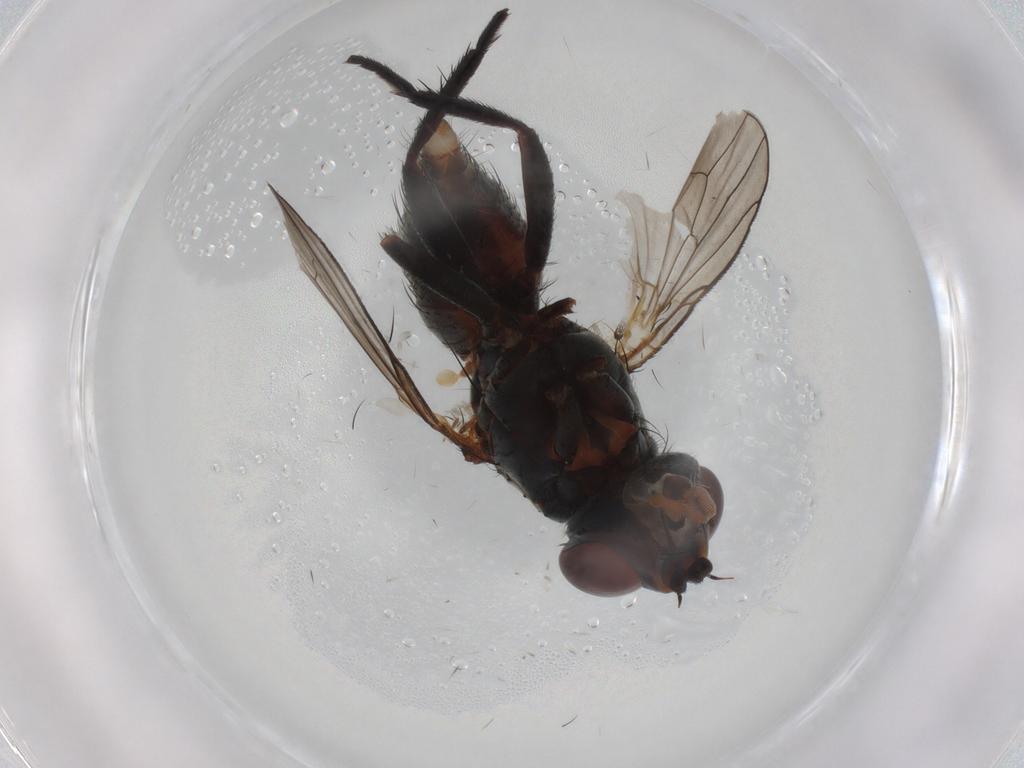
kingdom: Animalia
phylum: Arthropoda
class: Insecta
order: Diptera
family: Anthomyiidae
